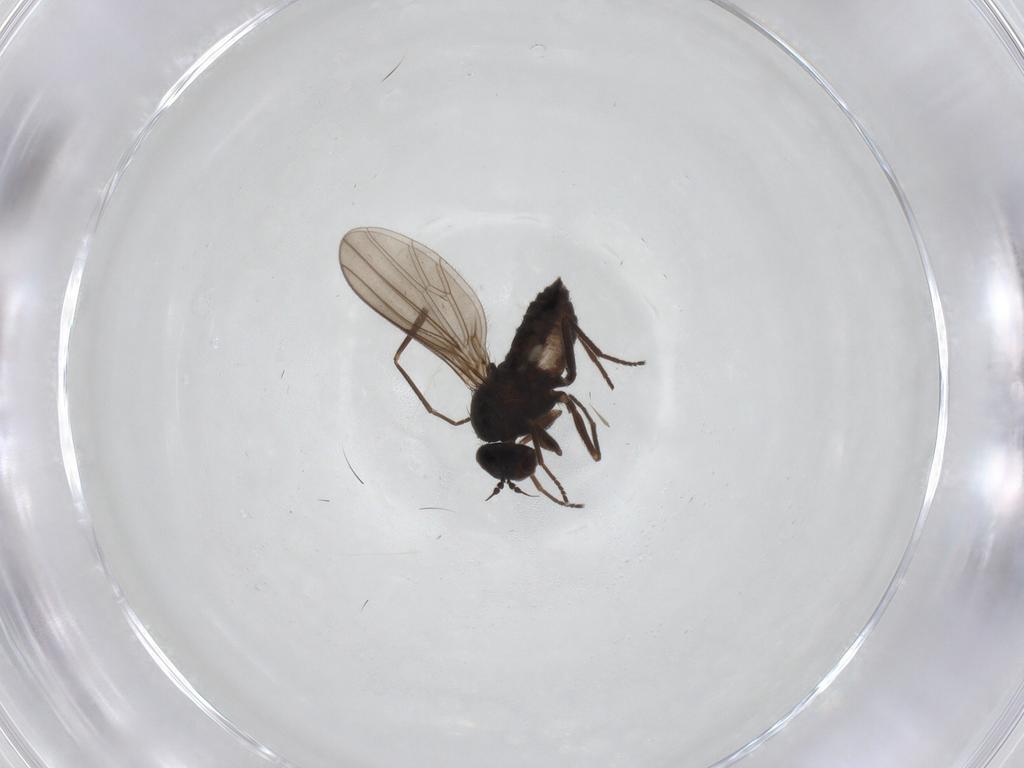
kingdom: Animalia
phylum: Arthropoda
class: Insecta
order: Diptera
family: Dolichopodidae
